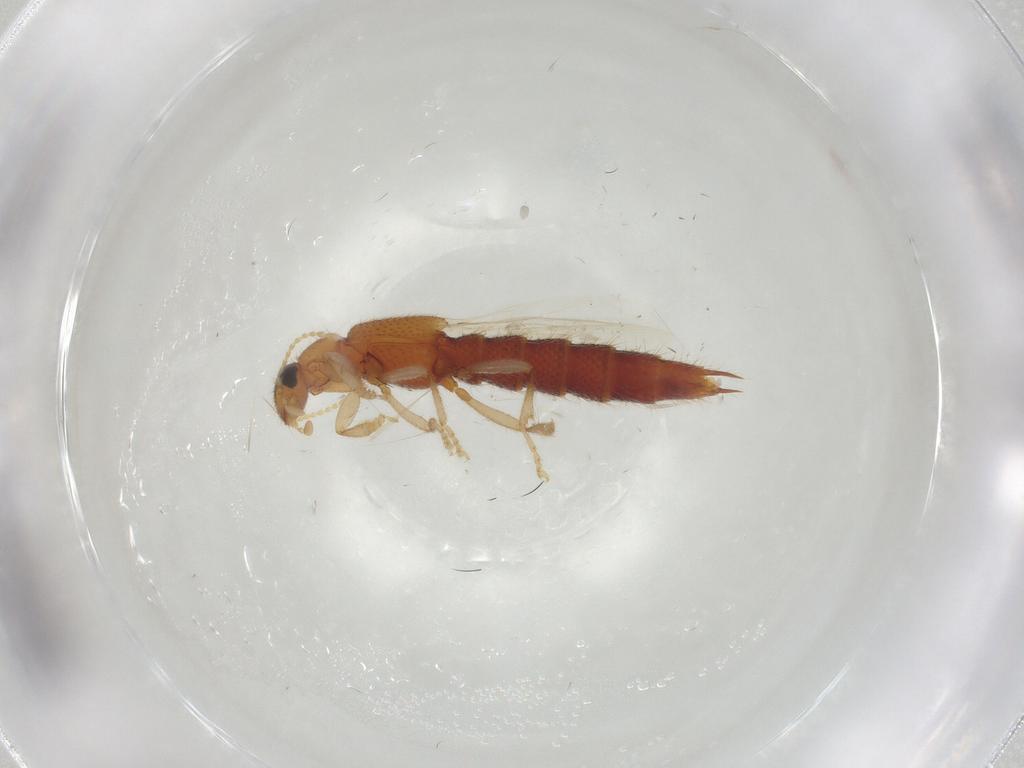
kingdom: Animalia
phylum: Arthropoda
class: Insecta
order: Coleoptera
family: Staphylinidae
